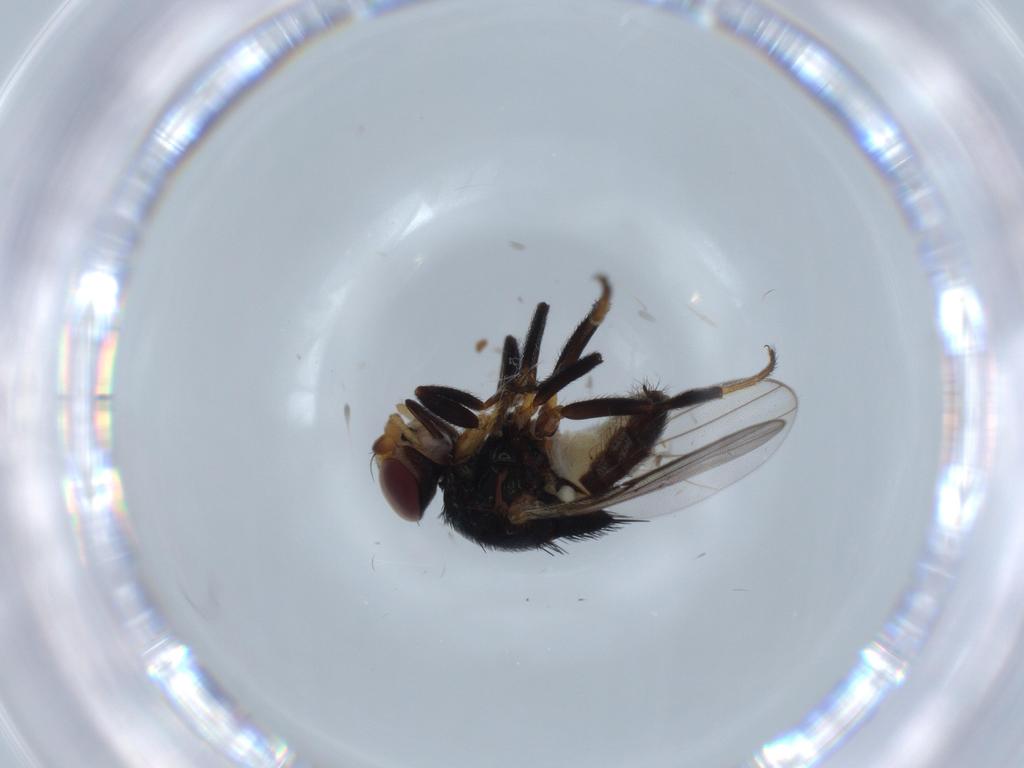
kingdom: Animalia
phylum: Arthropoda
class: Insecta
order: Diptera
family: Chloropidae
